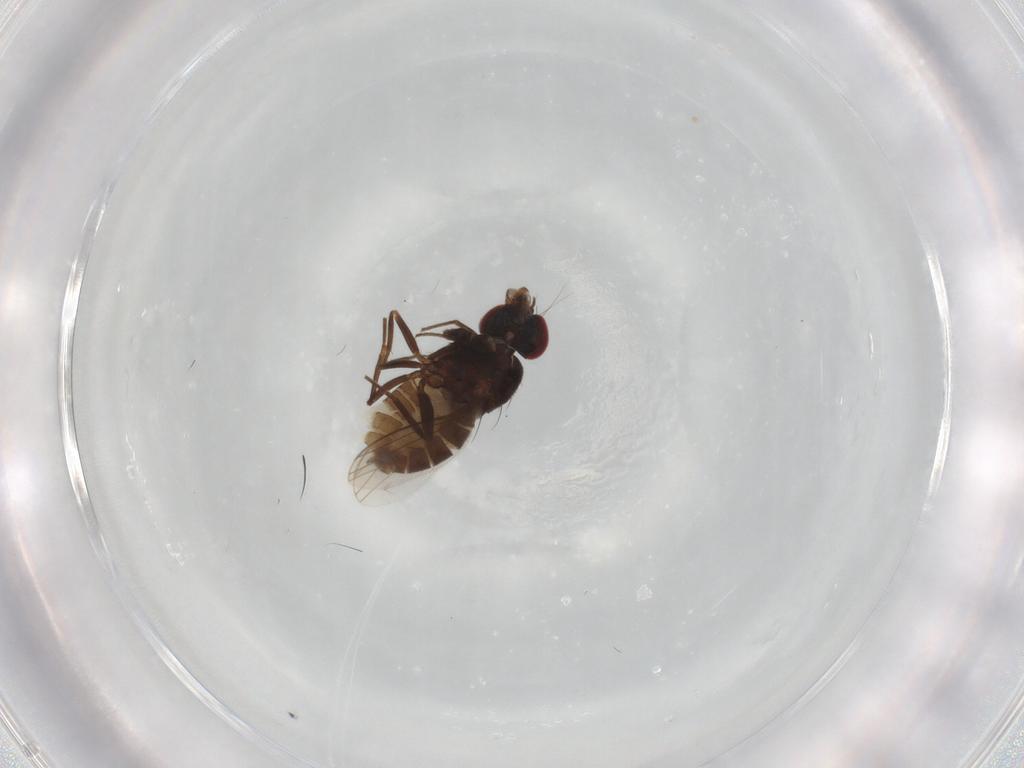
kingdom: Animalia
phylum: Arthropoda
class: Insecta
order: Diptera
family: Dolichopodidae
